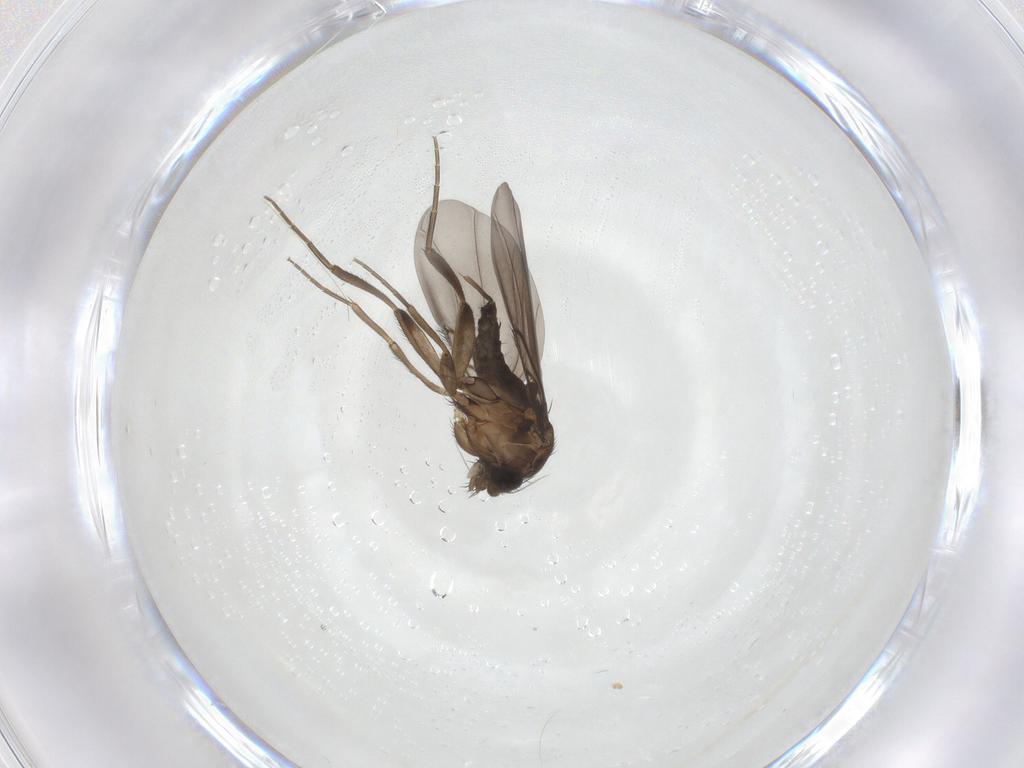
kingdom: Animalia
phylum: Arthropoda
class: Insecta
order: Diptera
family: Phoridae
